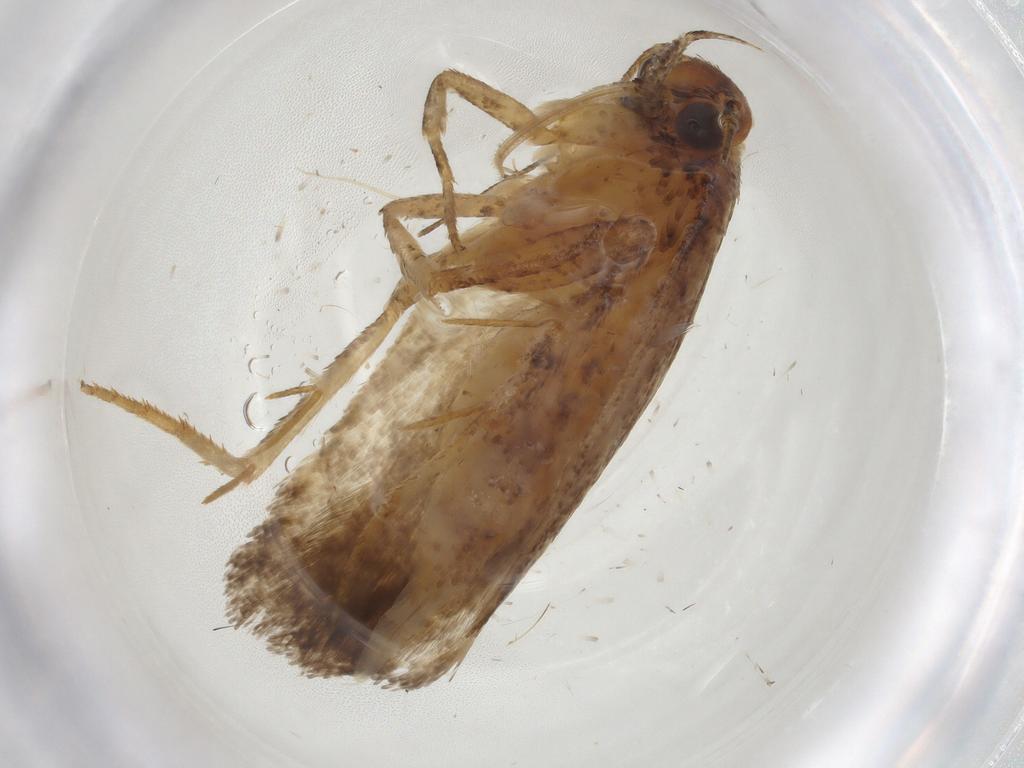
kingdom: Animalia
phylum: Arthropoda
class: Insecta
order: Lepidoptera
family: Gelechiidae
